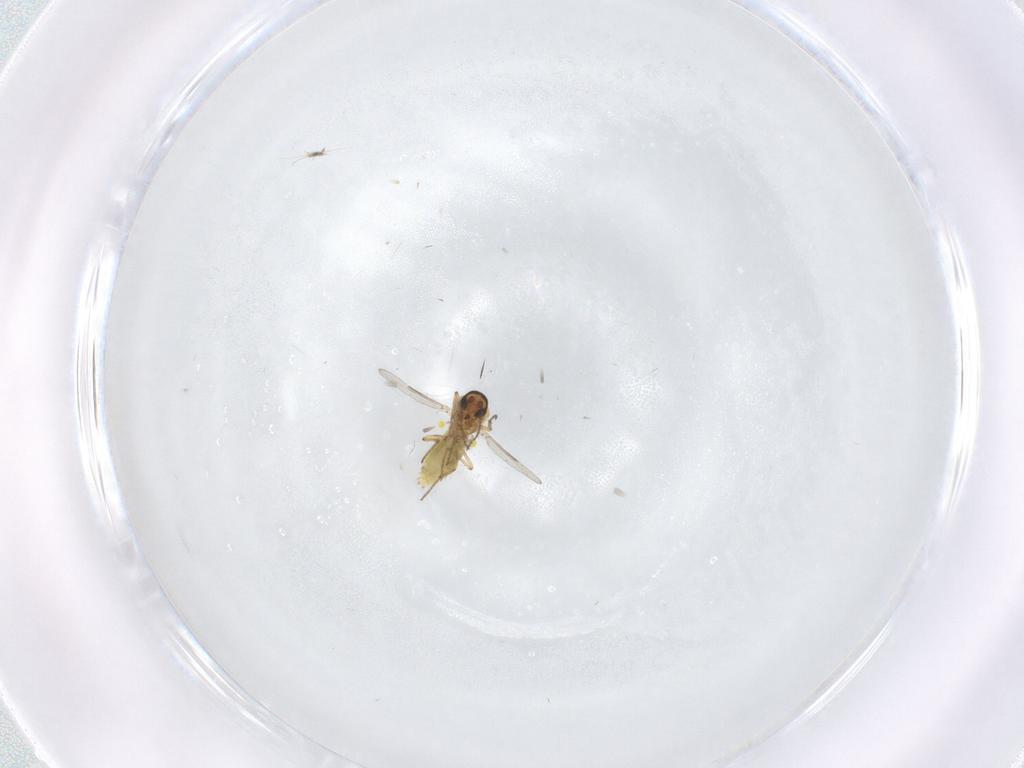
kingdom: Animalia
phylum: Arthropoda
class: Insecta
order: Diptera
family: Ceratopogonidae
